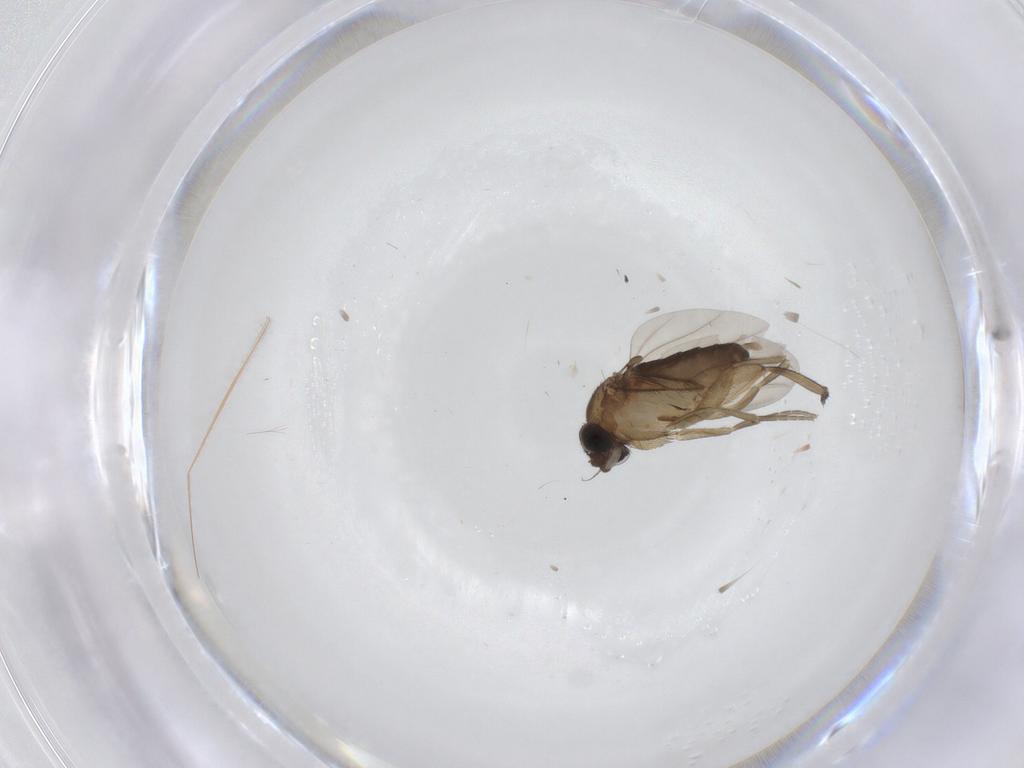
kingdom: Animalia
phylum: Arthropoda
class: Insecta
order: Diptera
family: Phoridae
